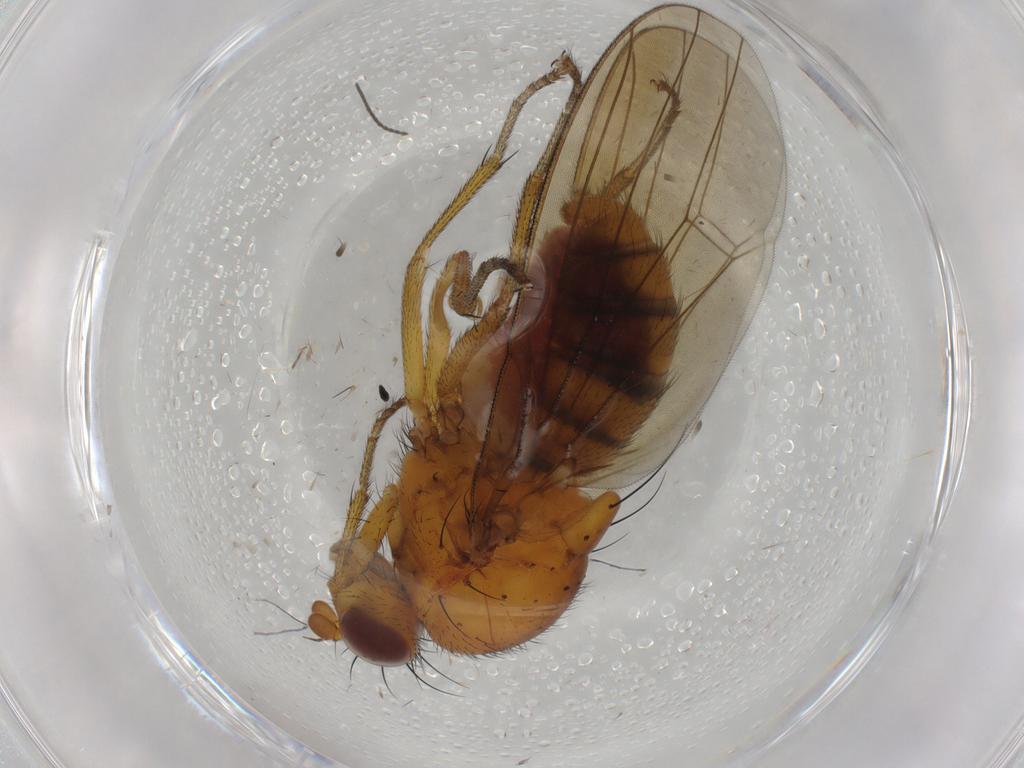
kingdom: Animalia
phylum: Arthropoda
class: Insecta
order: Diptera
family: Lauxaniidae
